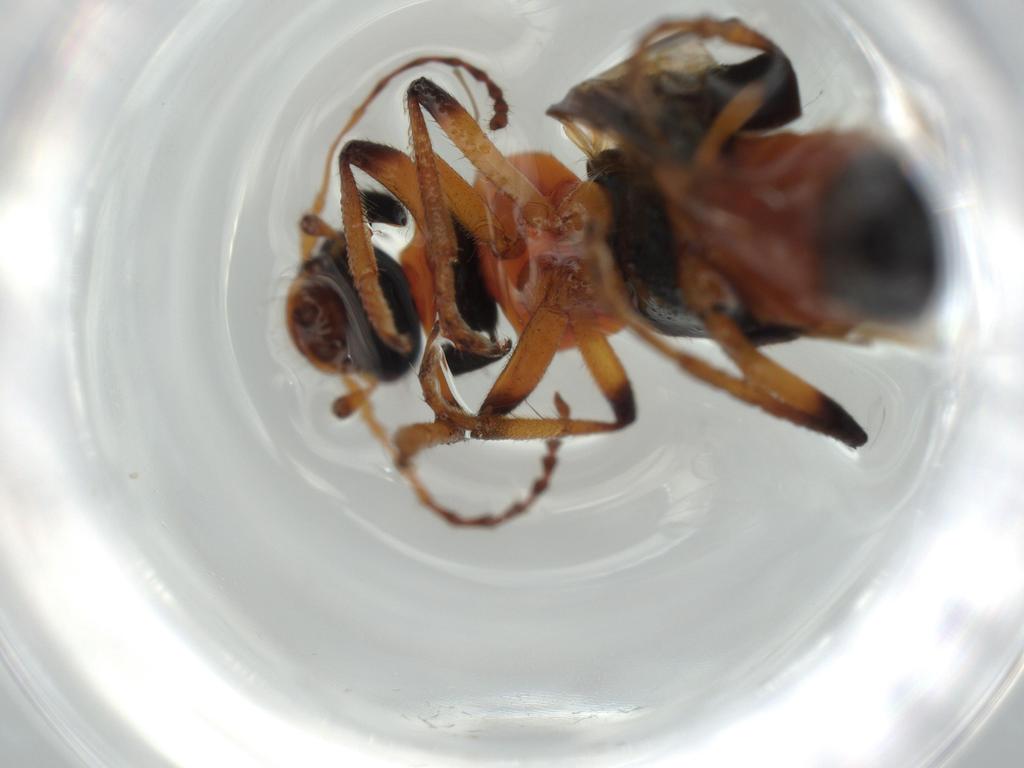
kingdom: Animalia
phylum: Arthropoda
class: Insecta
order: Coleoptera
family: Staphylinidae
